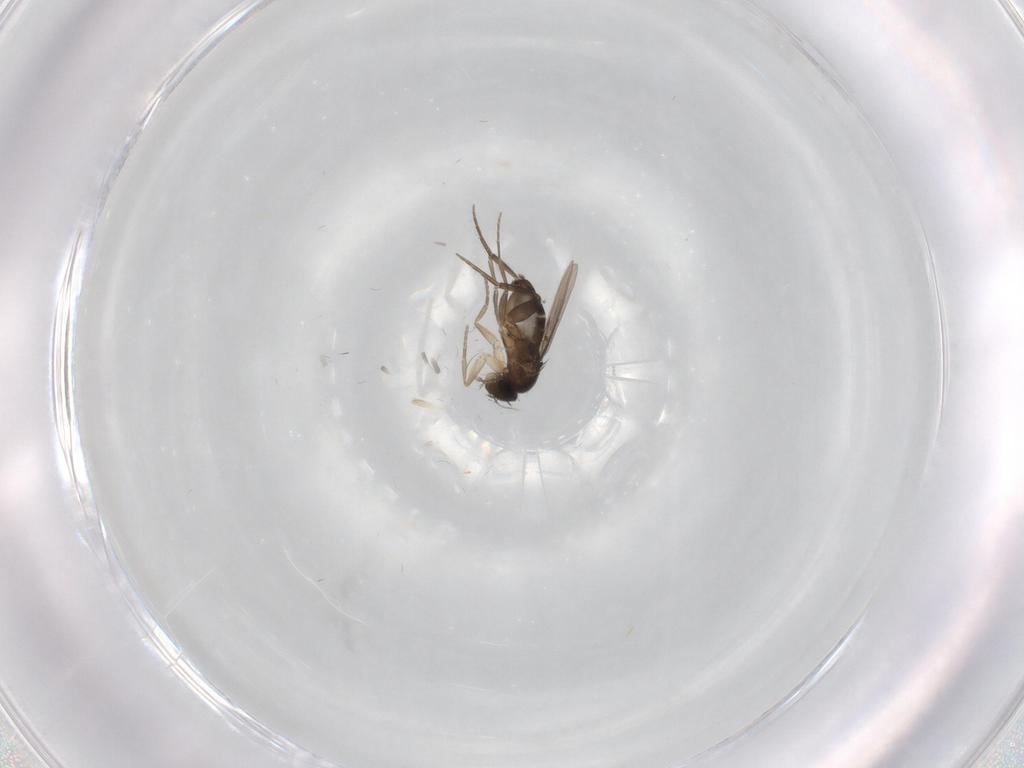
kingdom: Animalia
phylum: Arthropoda
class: Insecta
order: Diptera
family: Phoridae
